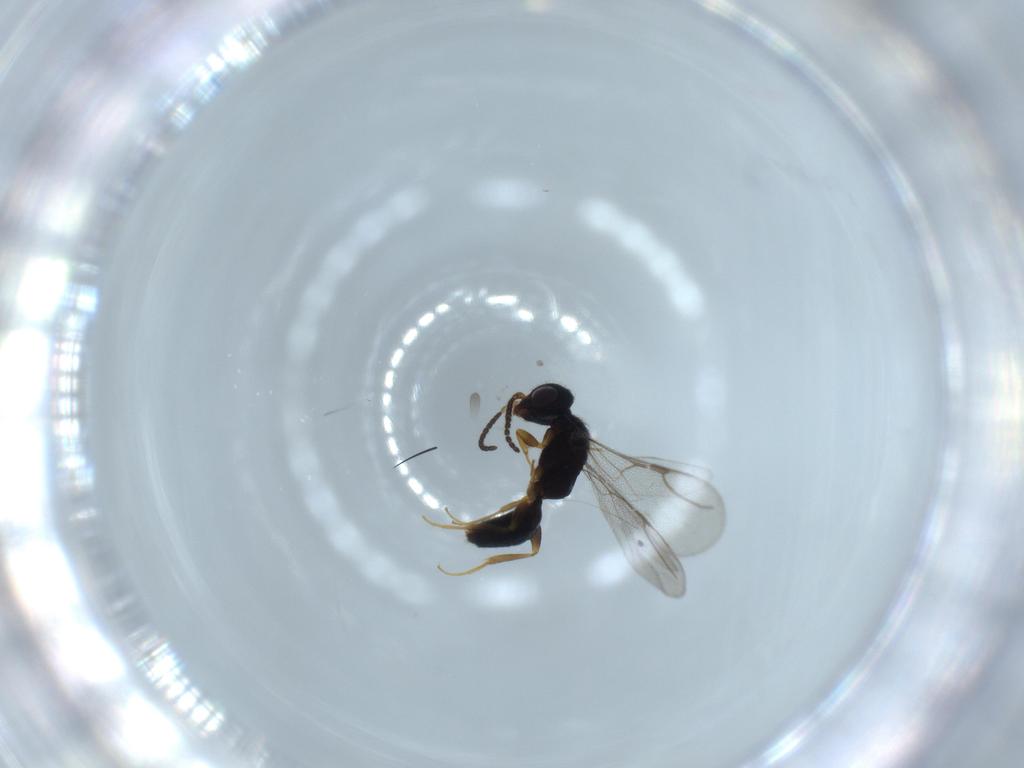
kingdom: Animalia
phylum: Arthropoda
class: Insecta
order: Hymenoptera
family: Bethylidae
